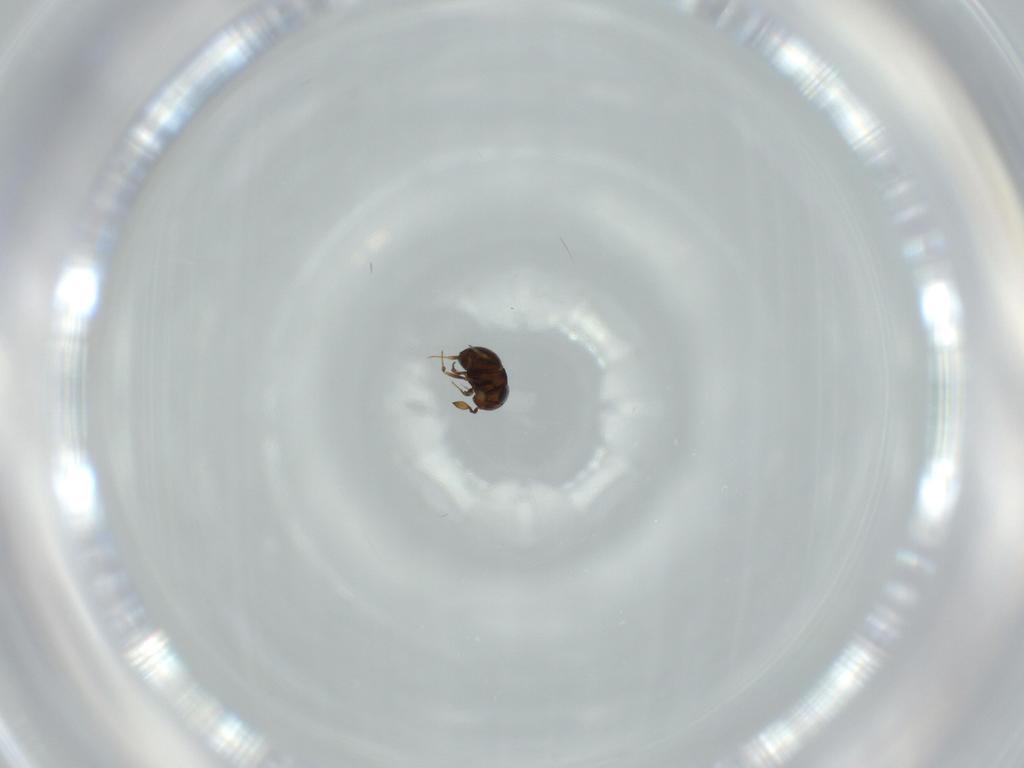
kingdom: Animalia
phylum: Arthropoda
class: Insecta
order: Hymenoptera
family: Scelionidae
